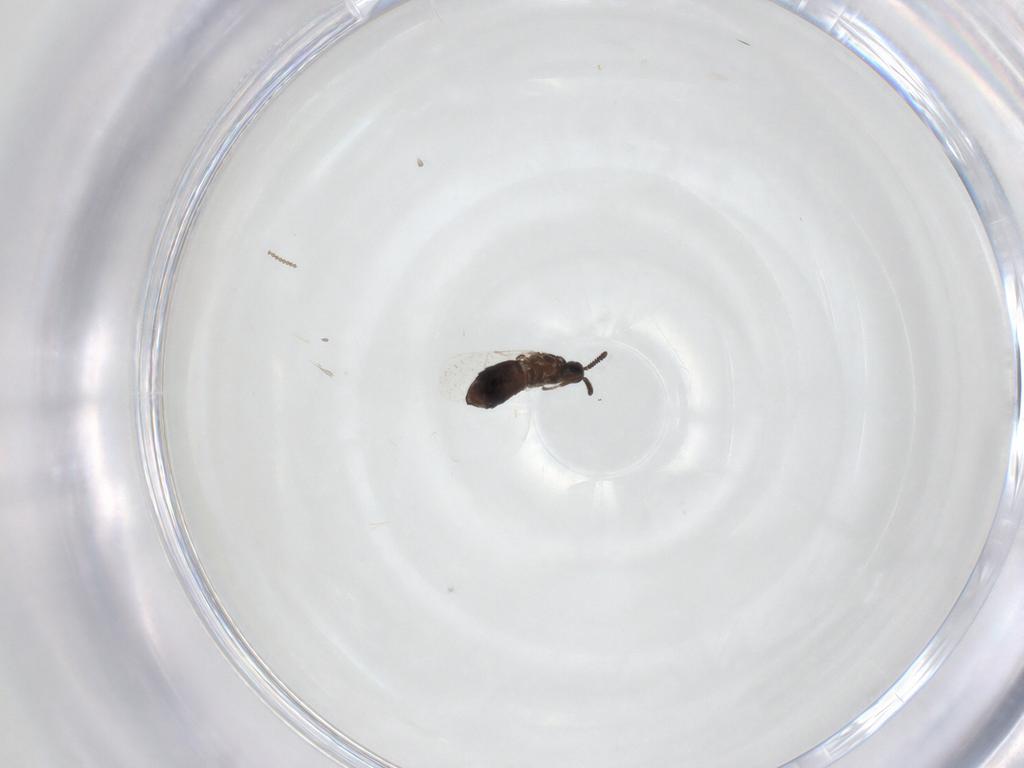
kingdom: Animalia
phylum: Arthropoda
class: Insecta
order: Diptera
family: Scatopsidae
